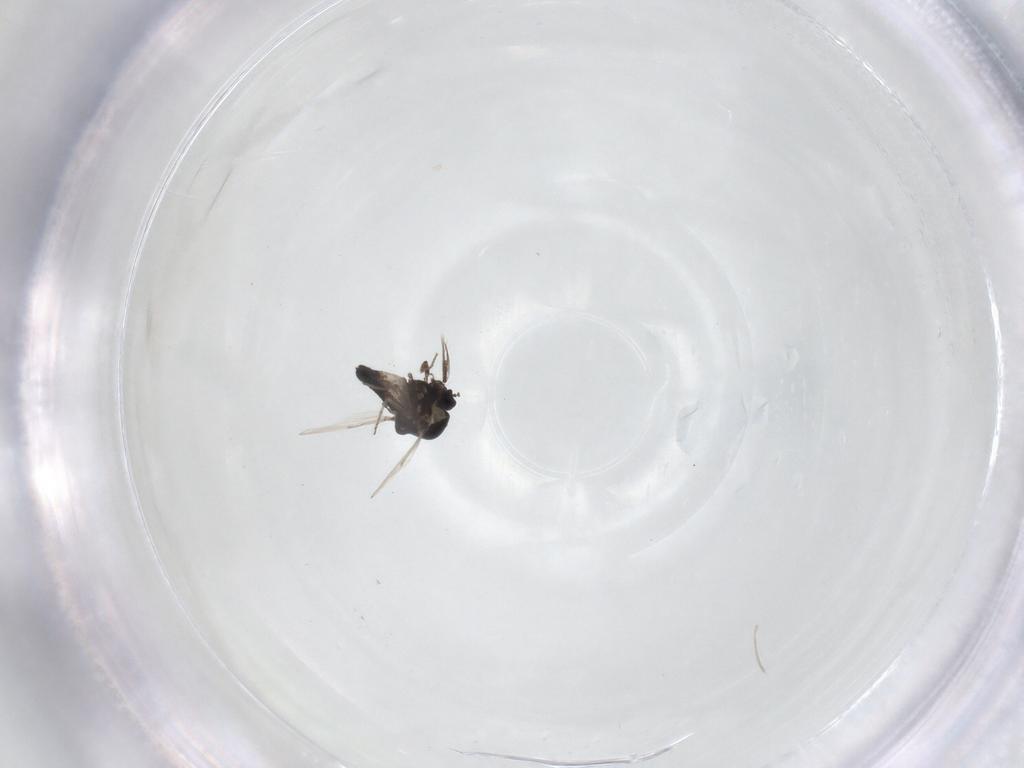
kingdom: Animalia
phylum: Arthropoda
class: Insecta
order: Diptera
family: Ceratopogonidae
